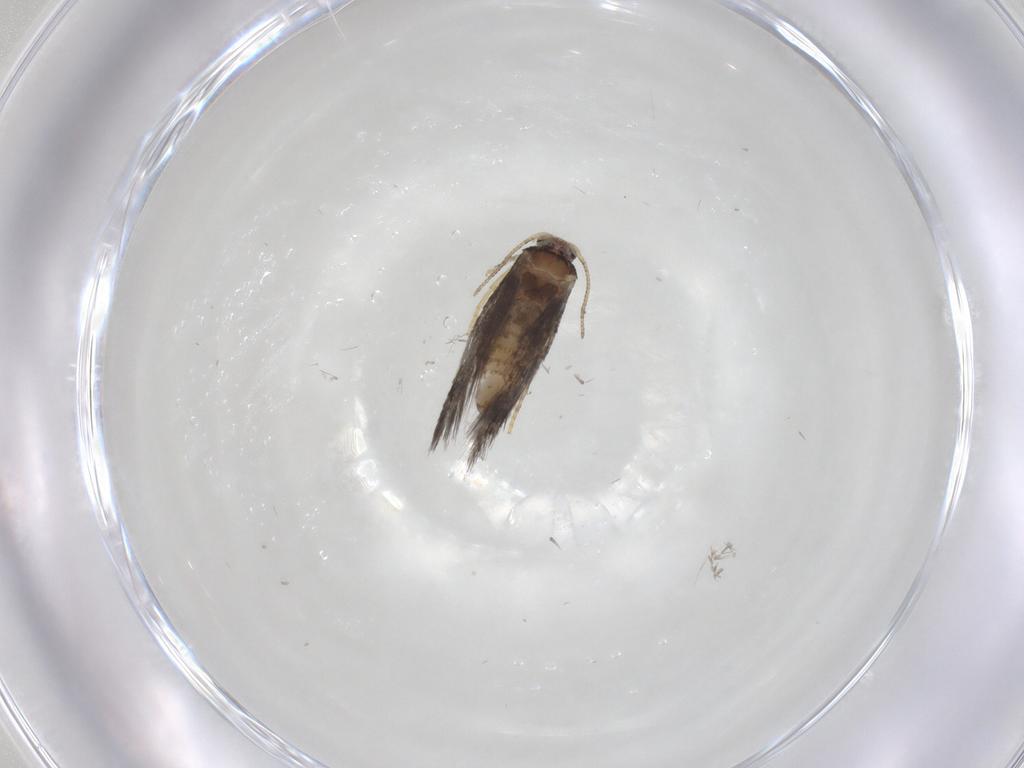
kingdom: Animalia
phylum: Arthropoda
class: Insecta
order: Lepidoptera
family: Nepticulidae
